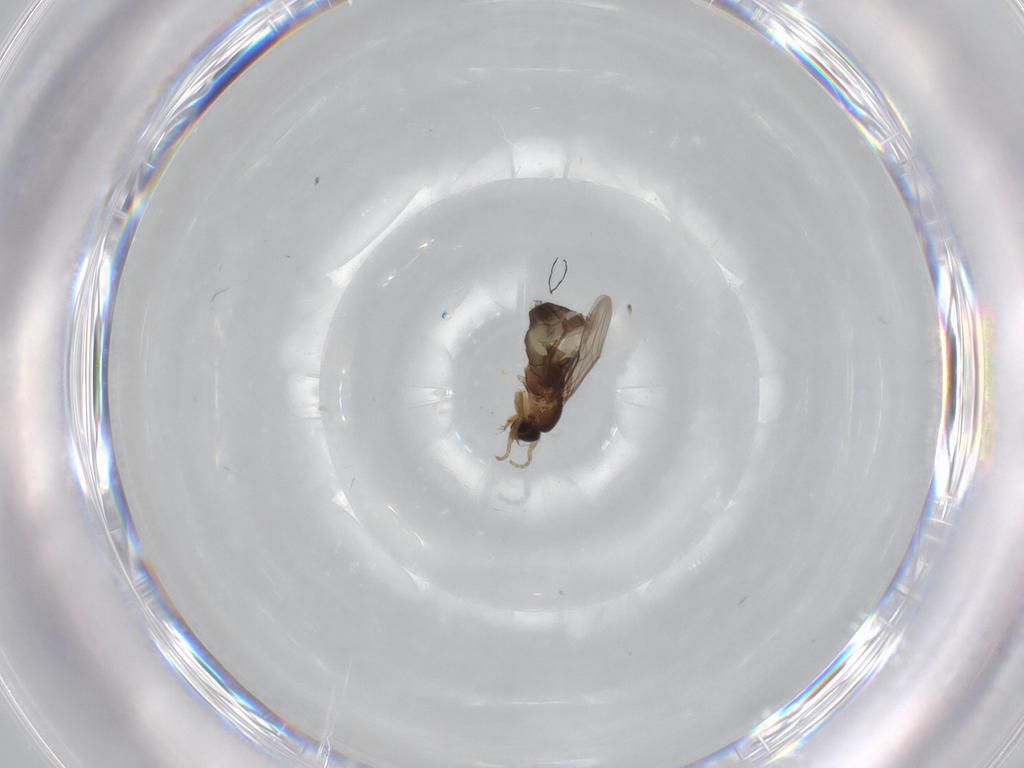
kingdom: Animalia
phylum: Arthropoda
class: Insecta
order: Diptera
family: Phoridae
